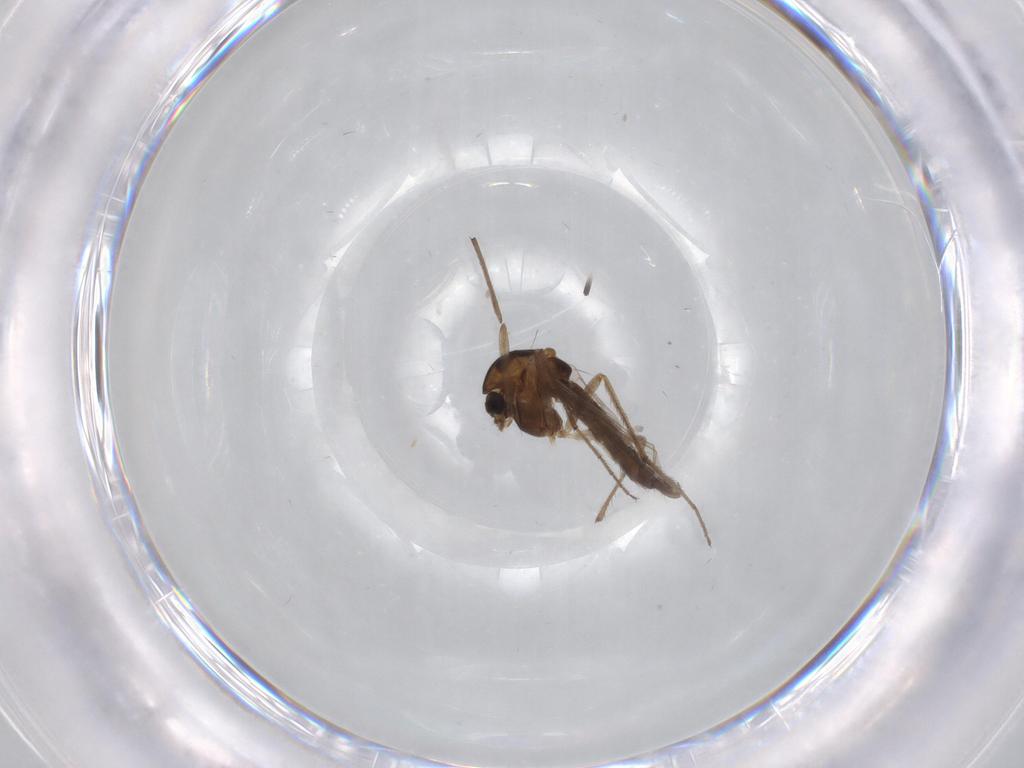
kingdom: Animalia
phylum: Arthropoda
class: Insecta
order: Diptera
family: Chironomidae
